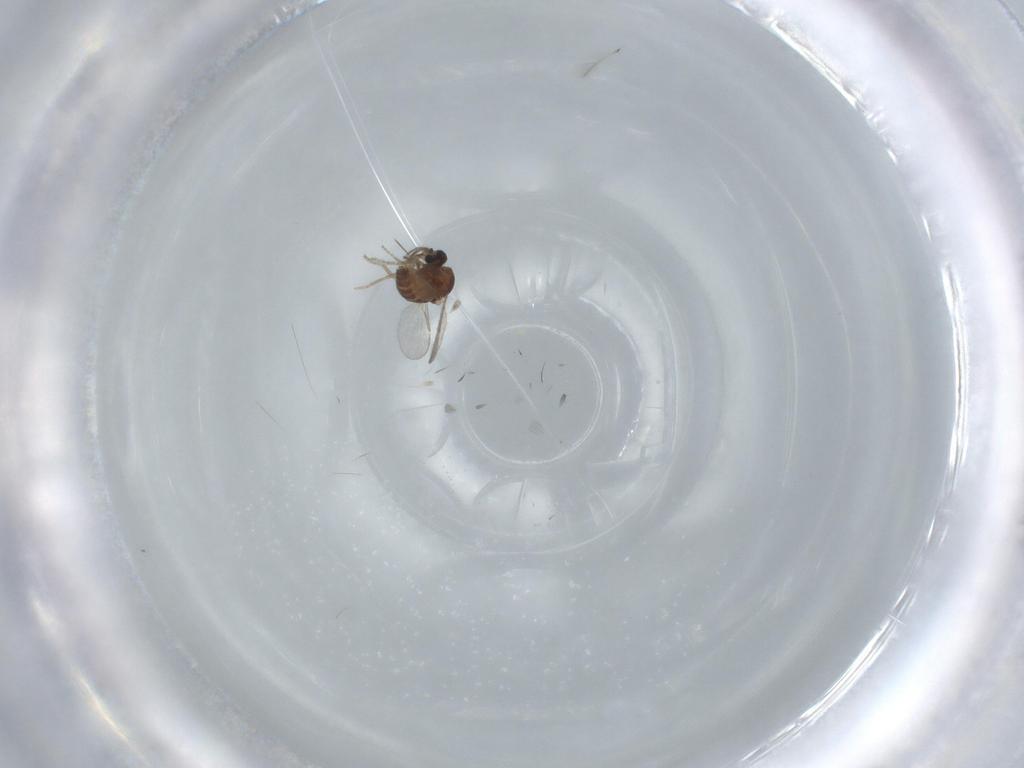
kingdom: Animalia
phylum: Arthropoda
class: Insecta
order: Diptera
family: Ceratopogonidae
